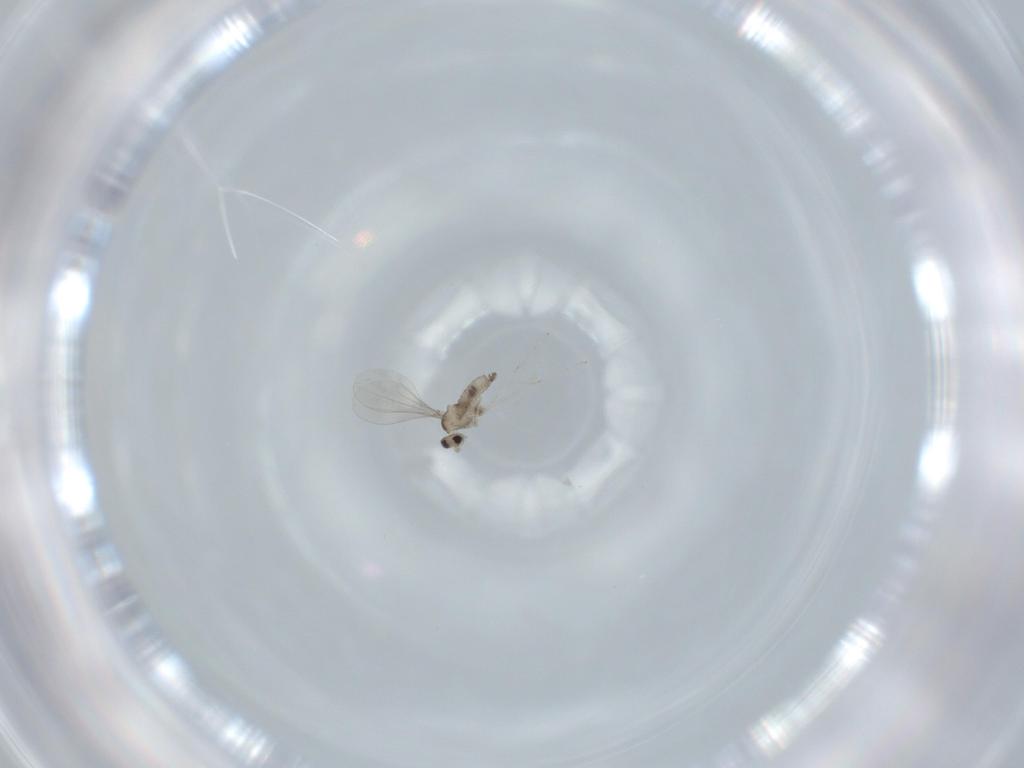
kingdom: Animalia
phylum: Arthropoda
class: Insecta
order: Diptera
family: Cecidomyiidae
